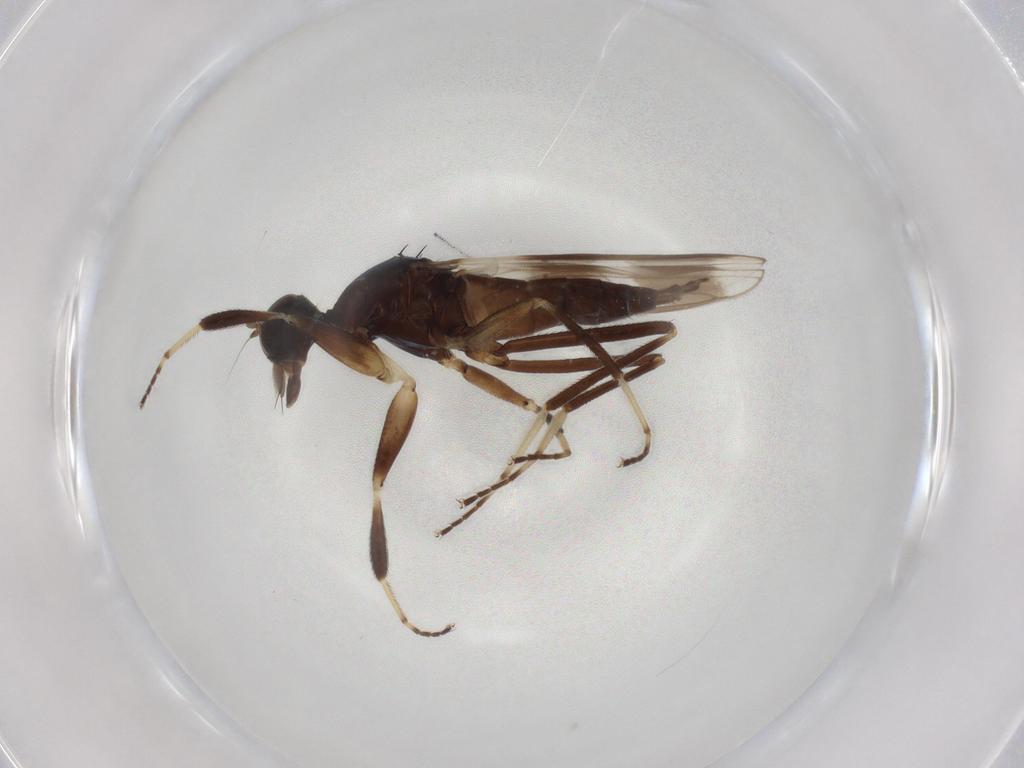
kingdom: Animalia
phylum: Arthropoda
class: Insecta
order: Diptera
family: Hybotidae
